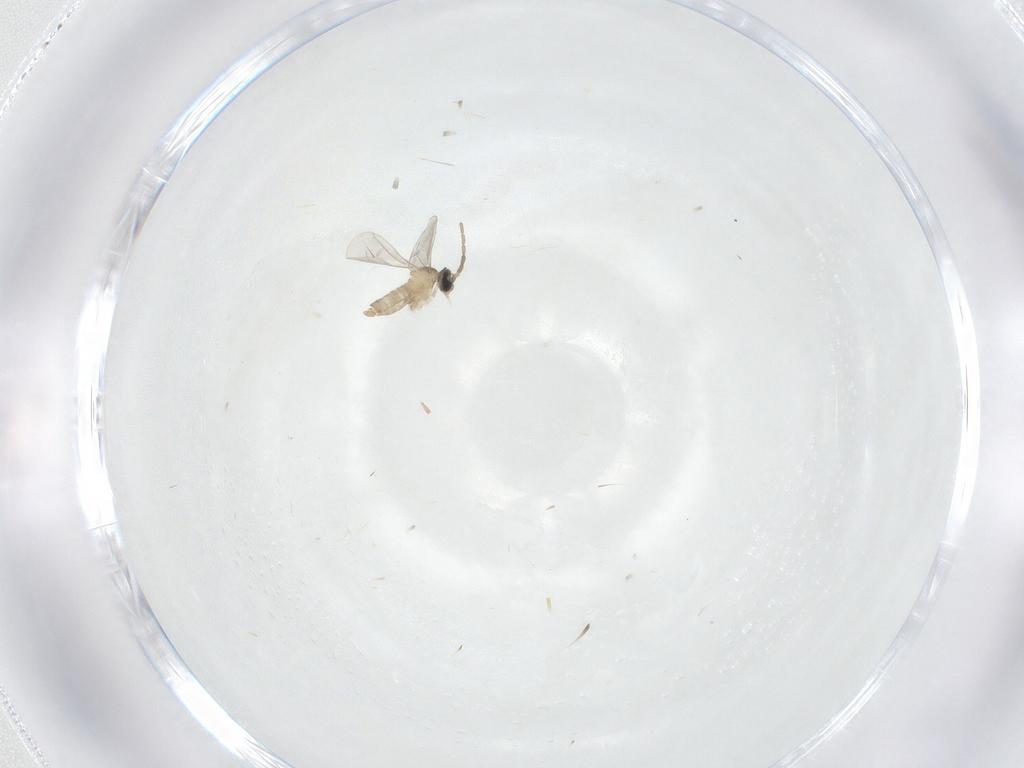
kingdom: Animalia
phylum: Arthropoda
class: Insecta
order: Diptera
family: Cecidomyiidae
